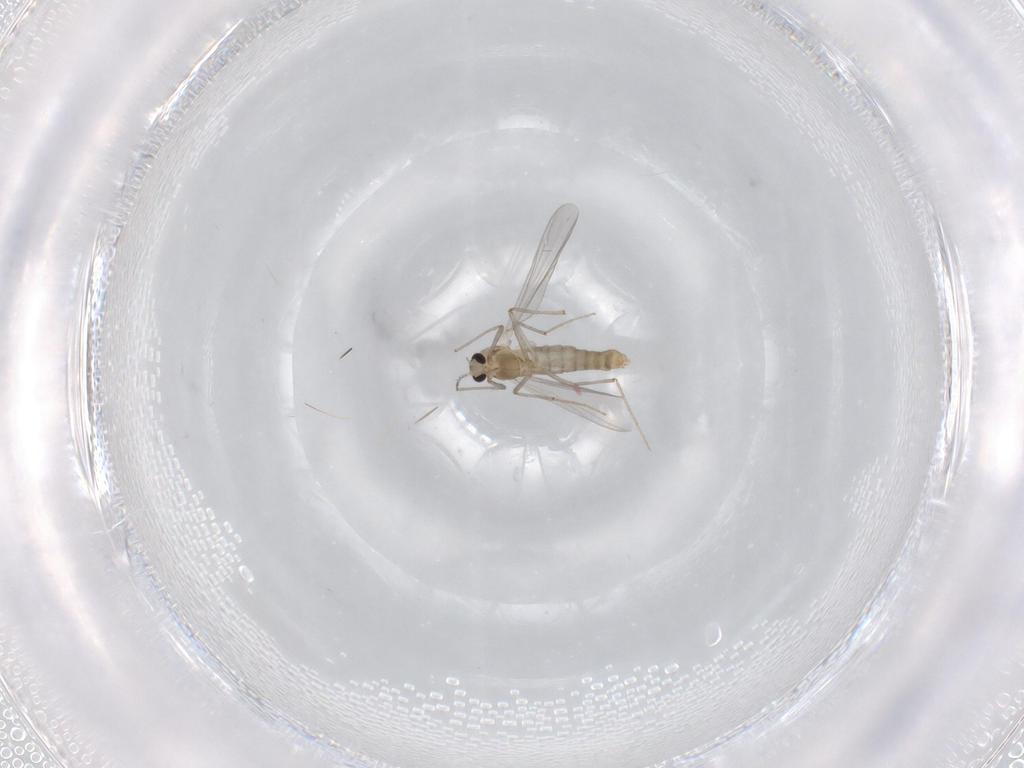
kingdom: Animalia
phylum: Arthropoda
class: Insecta
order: Diptera
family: Chironomidae
